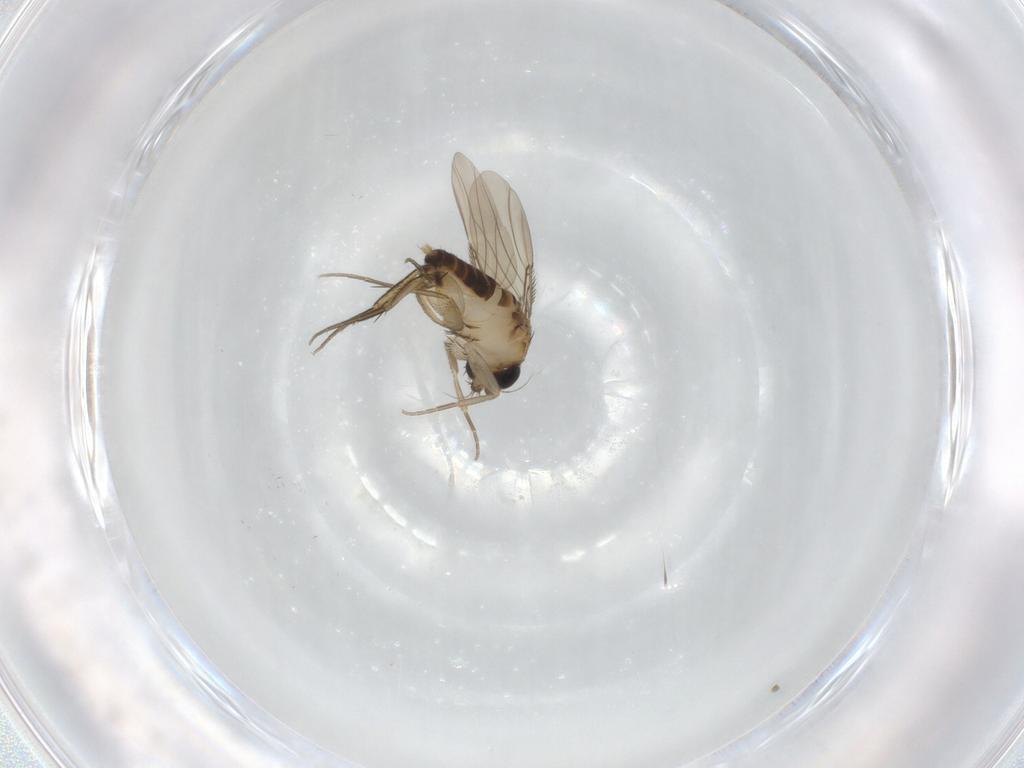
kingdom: Animalia
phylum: Arthropoda
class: Insecta
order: Diptera
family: Phoridae
